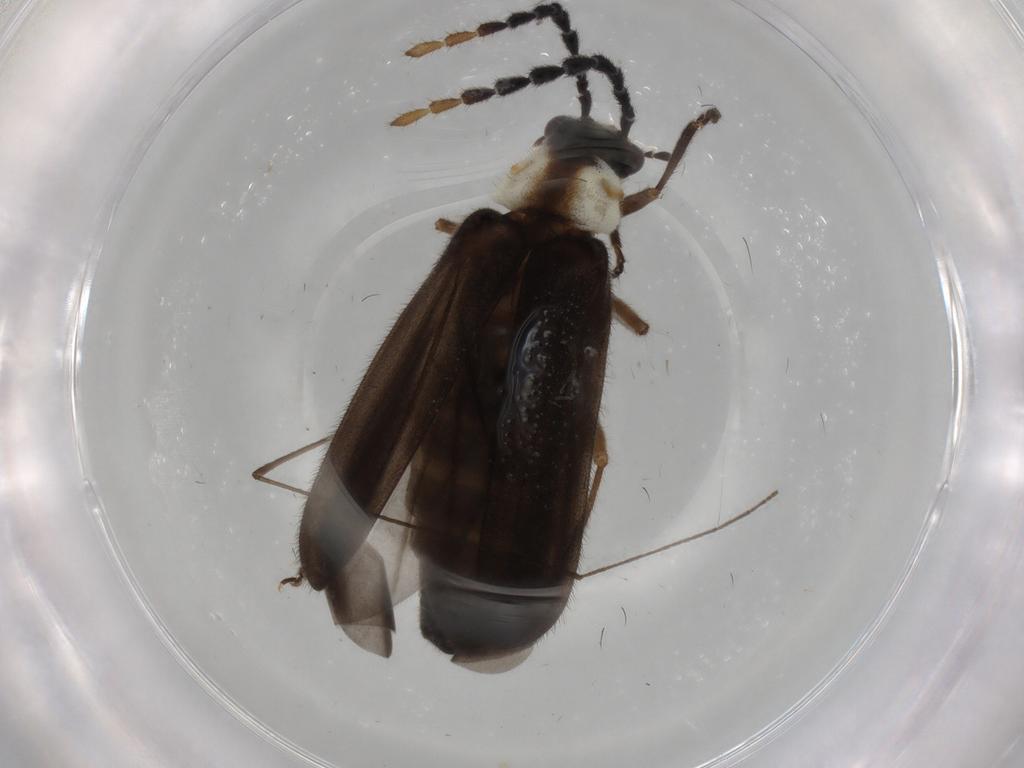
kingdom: Animalia
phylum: Arthropoda
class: Insecta
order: Coleoptera
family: Cantharidae
